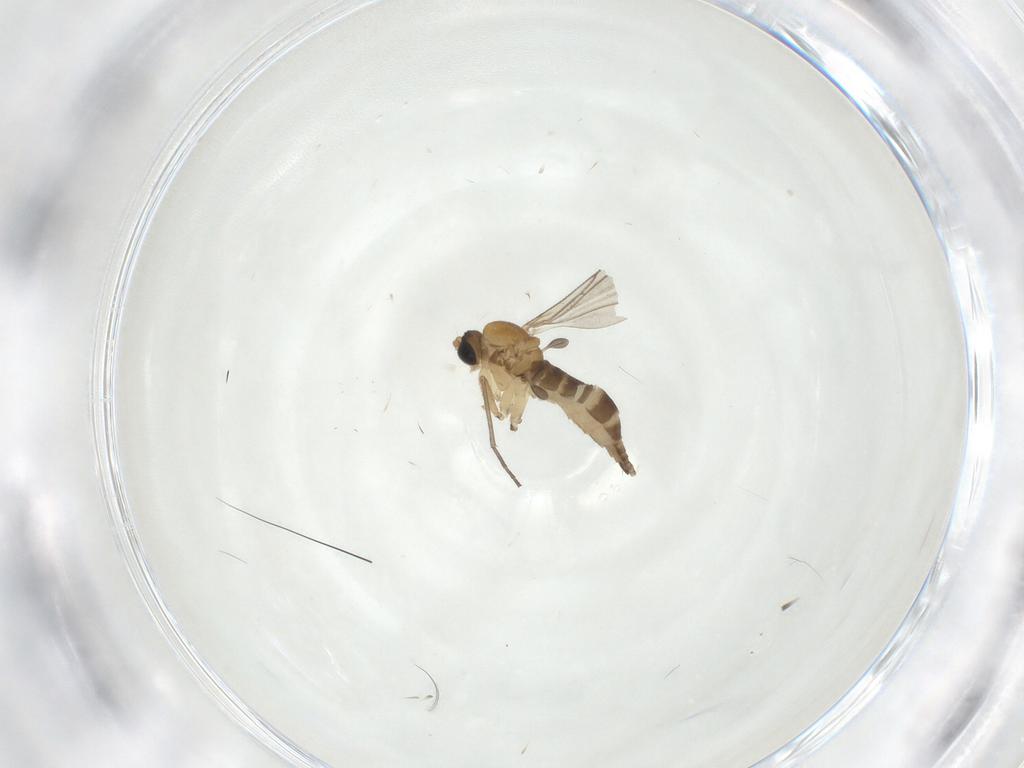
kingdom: Animalia
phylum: Arthropoda
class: Insecta
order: Diptera
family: Sciaridae
